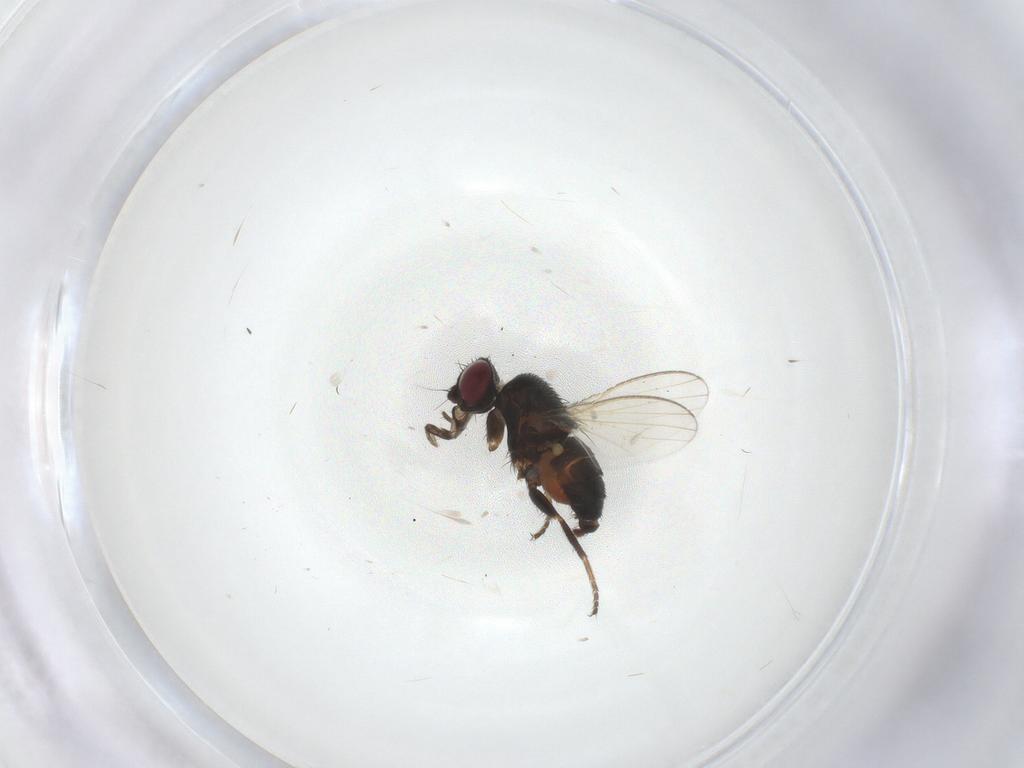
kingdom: Animalia
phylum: Arthropoda
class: Insecta
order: Diptera
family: Milichiidae
